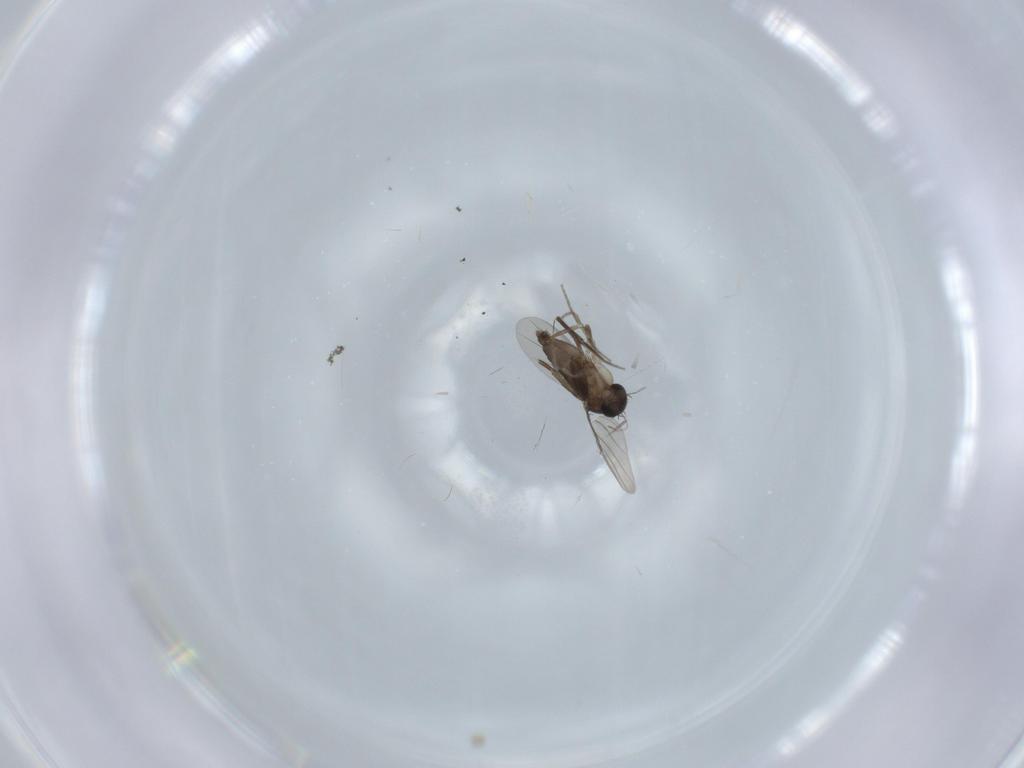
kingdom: Animalia
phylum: Arthropoda
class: Insecta
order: Diptera
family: Phoridae
